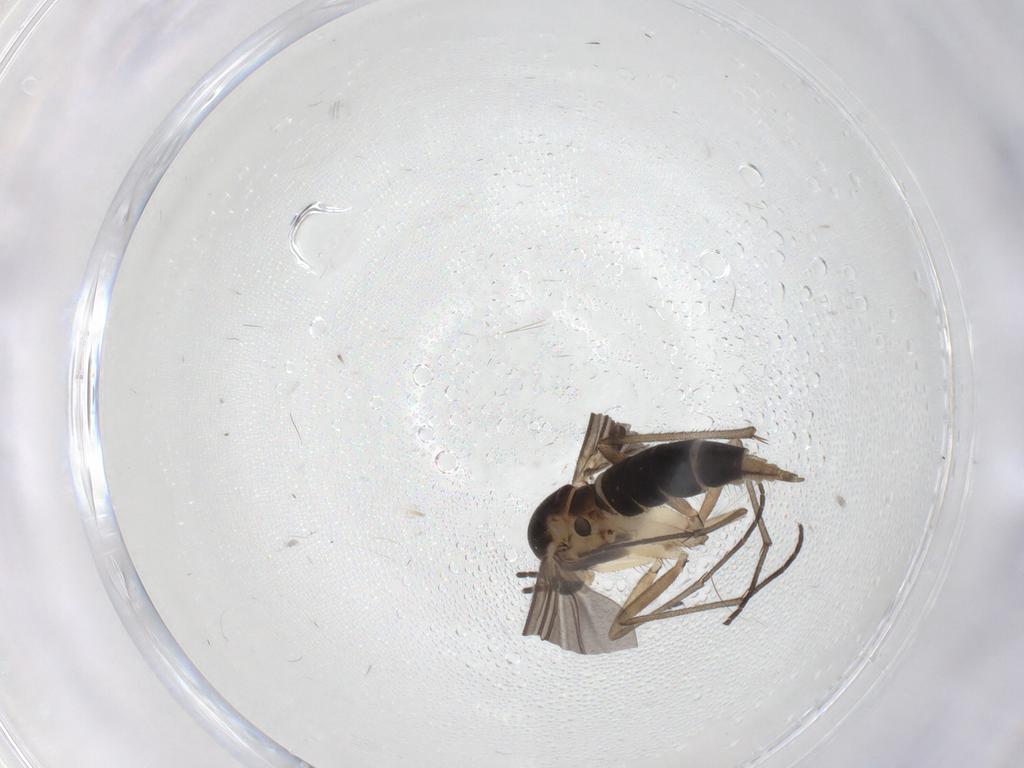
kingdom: Animalia
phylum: Arthropoda
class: Insecta
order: Diptera
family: Sciaridae
